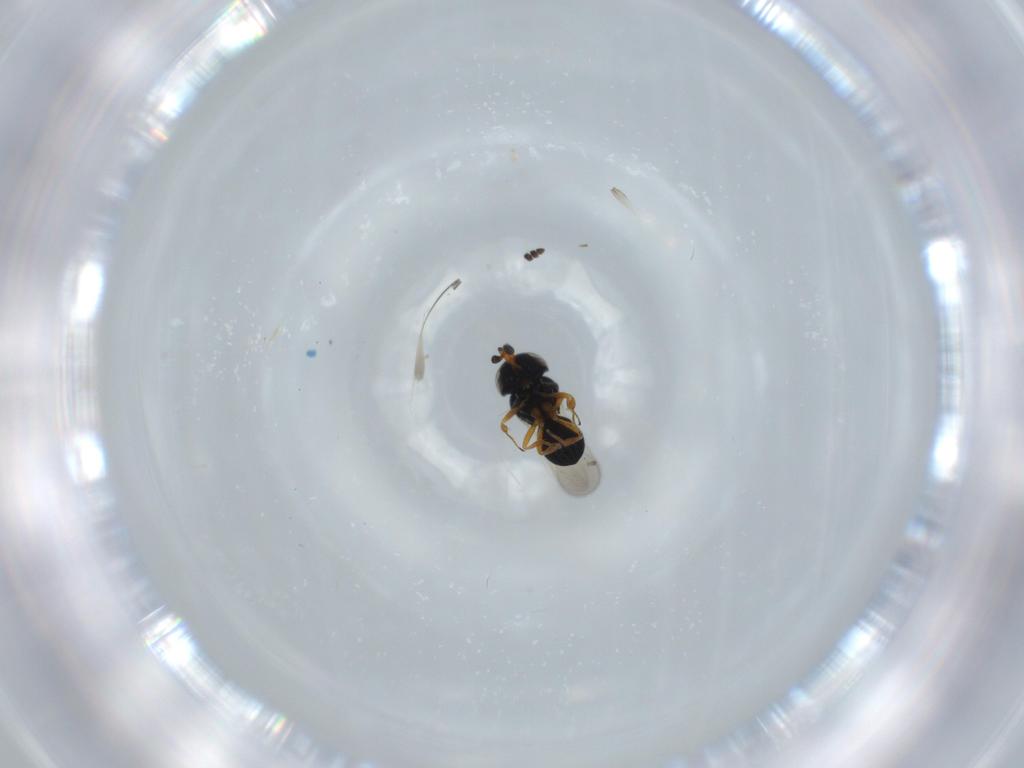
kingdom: Animalia
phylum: Arthropoda
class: Insecta
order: Hymenoptera
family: Scelionidae
